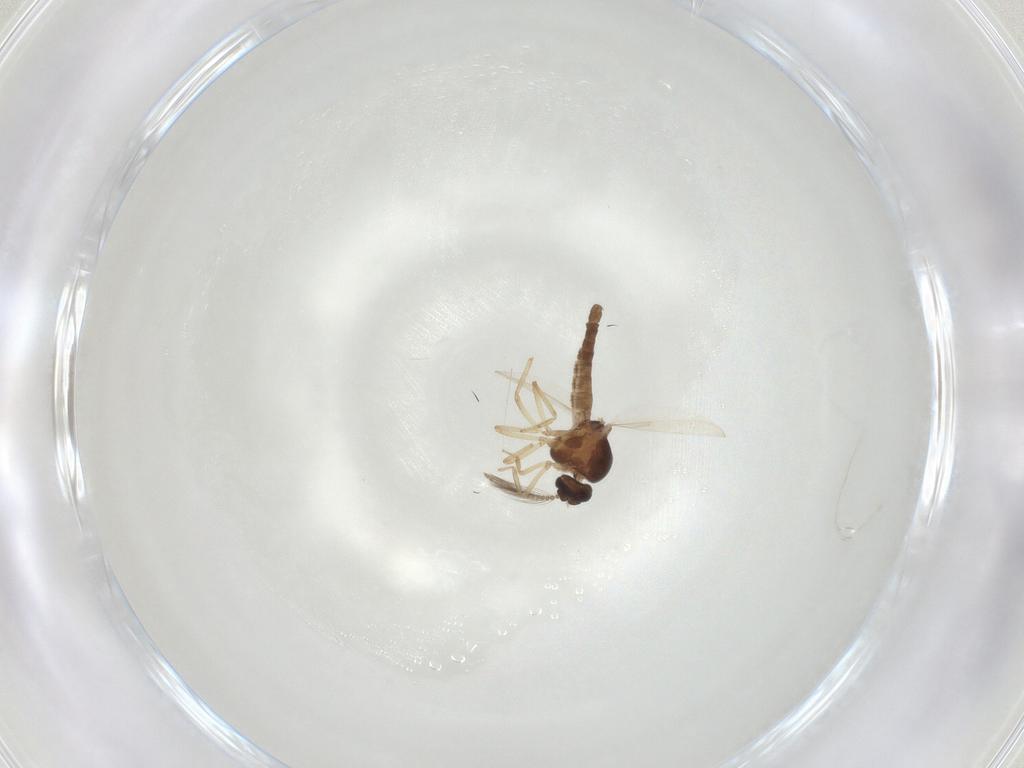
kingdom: Animalia
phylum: Arthropoda
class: Insecta
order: Diptera
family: Ceratopogonidae
